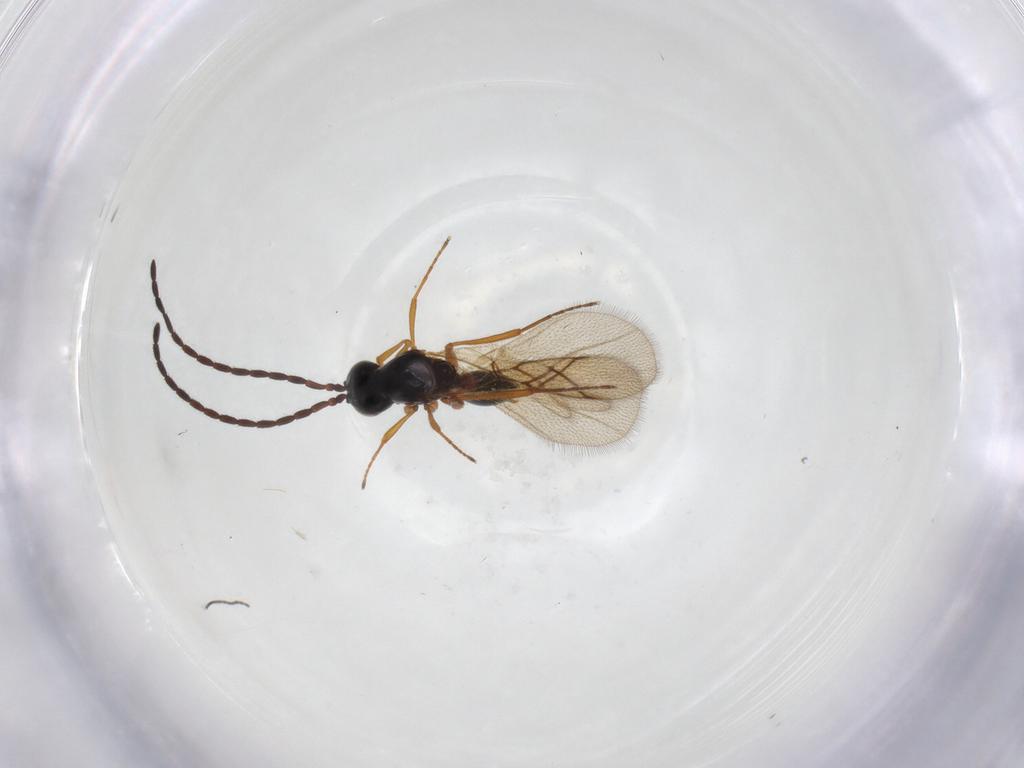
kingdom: Animalia
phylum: Arthropoda
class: Insecta
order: Hymenoptera
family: Figitidae
